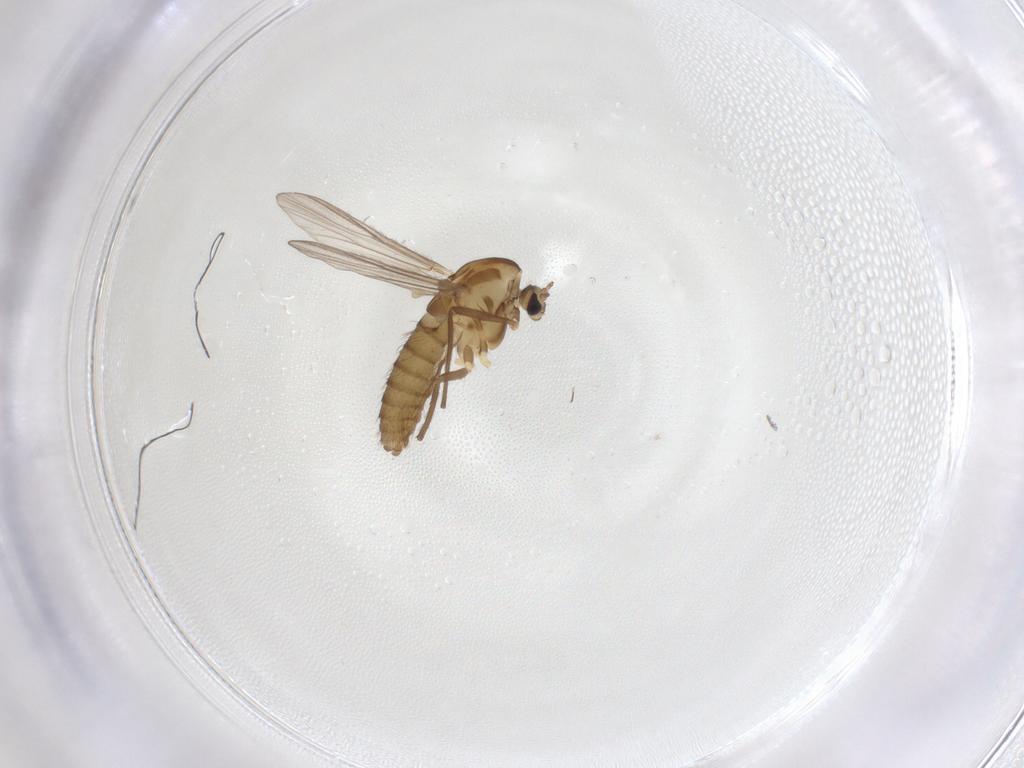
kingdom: Animalia
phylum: Arthropoda
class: Insecta
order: Diptera
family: Chironomidae
